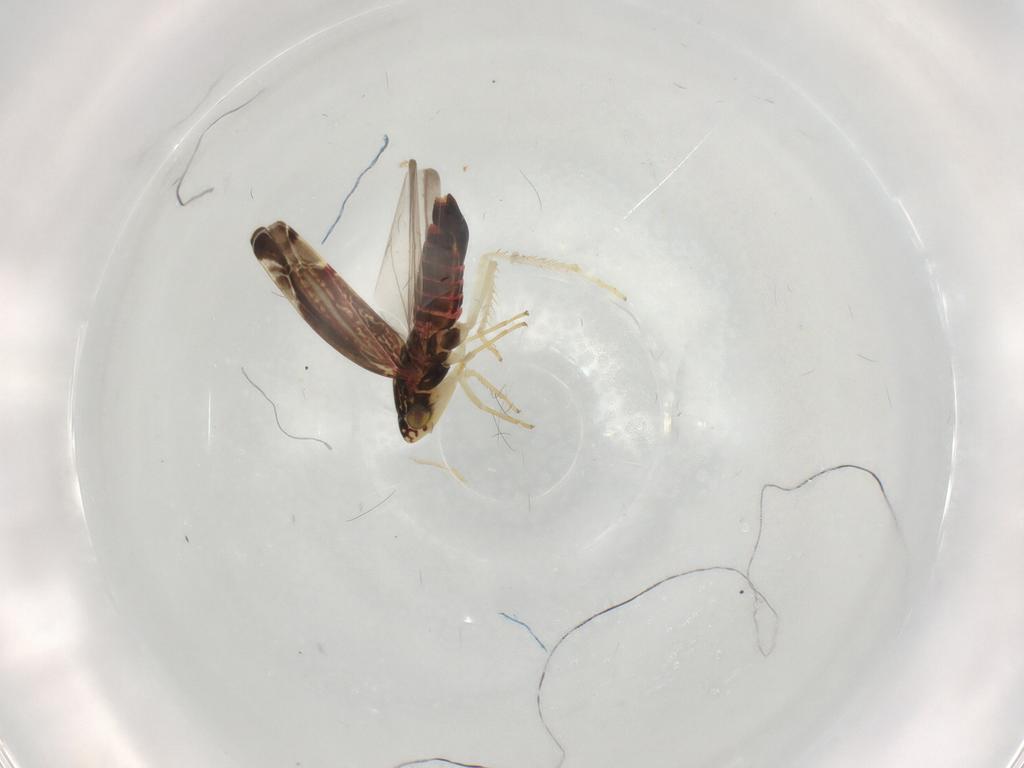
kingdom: Animalia
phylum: Arthropoda
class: Insecta
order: Hemiptera
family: Cicadellidae
